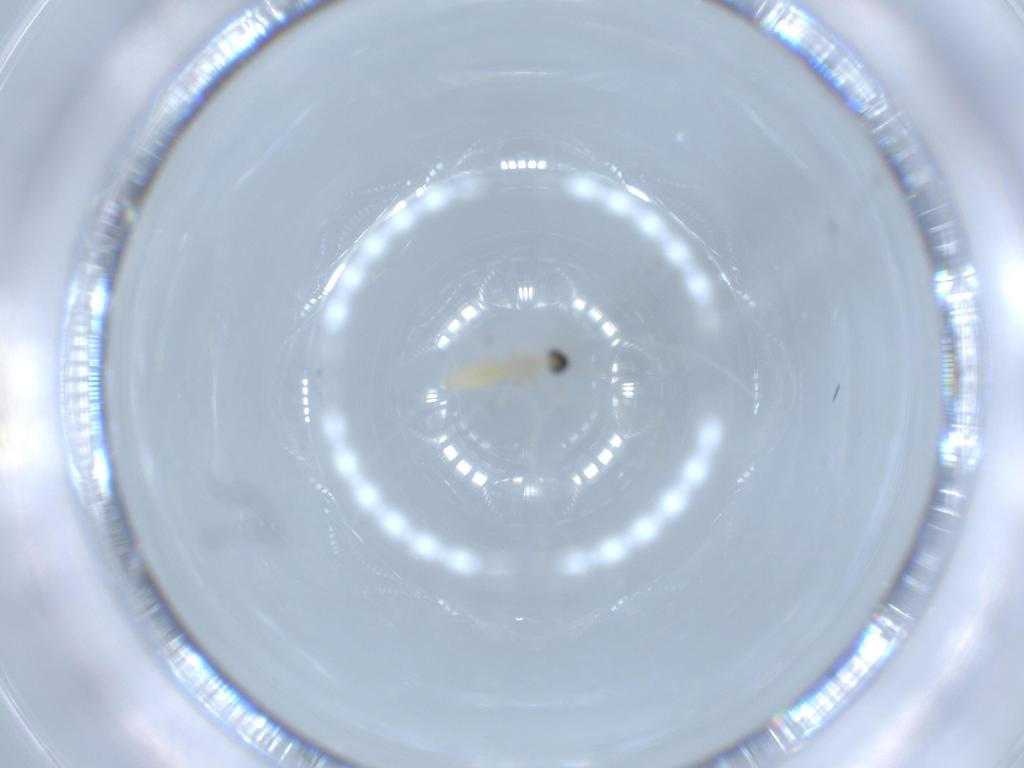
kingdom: Animalia
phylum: Arthropoda
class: Insecta
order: Diptera
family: Cecidomyiidae
